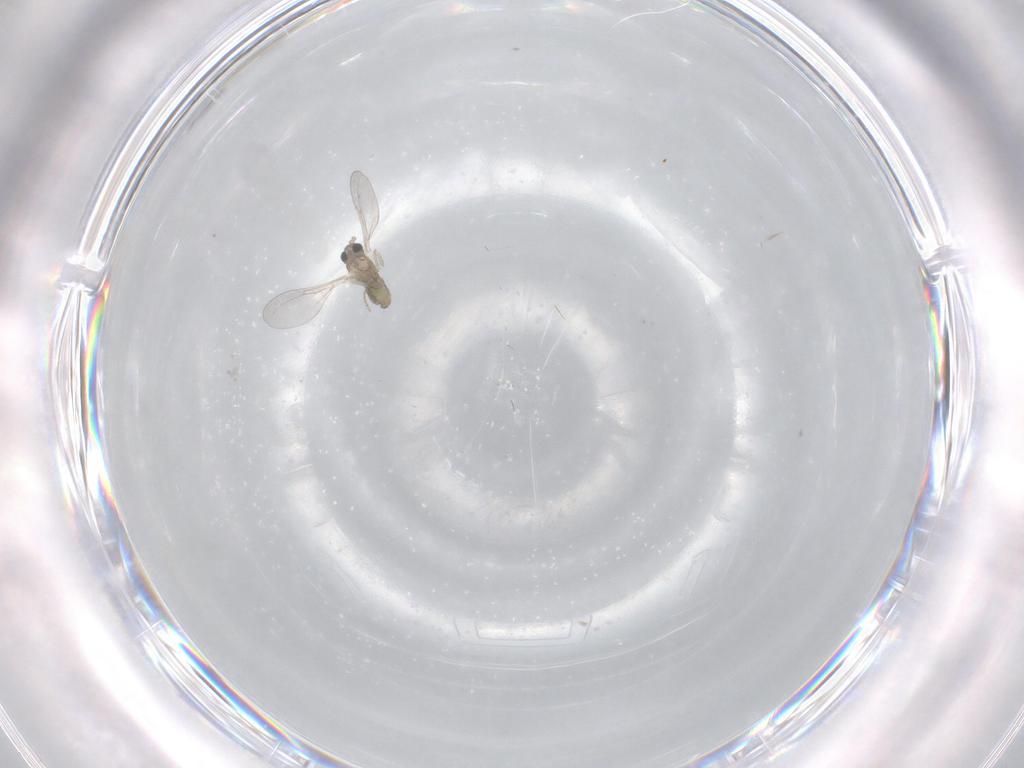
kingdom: Animalia
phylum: Arthropoda
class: Insecta
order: Diptera
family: Cecidomyiidae
